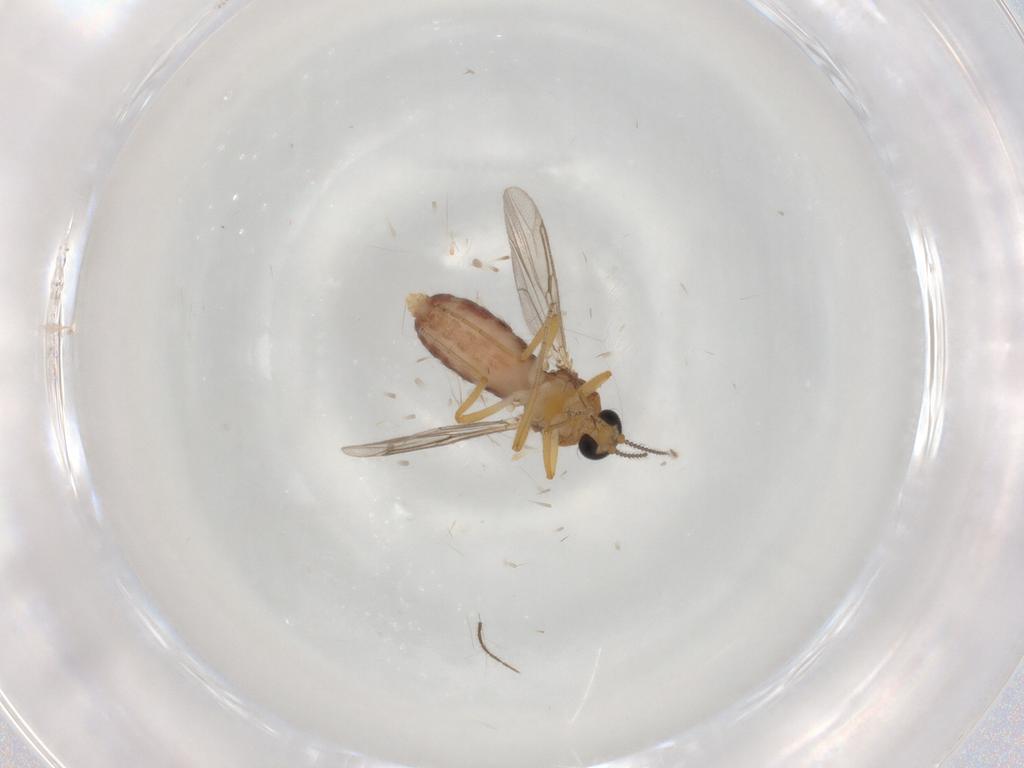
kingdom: Animalia
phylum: Arthropoda
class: Insecta
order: Diptera
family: Ceratopogonidae
